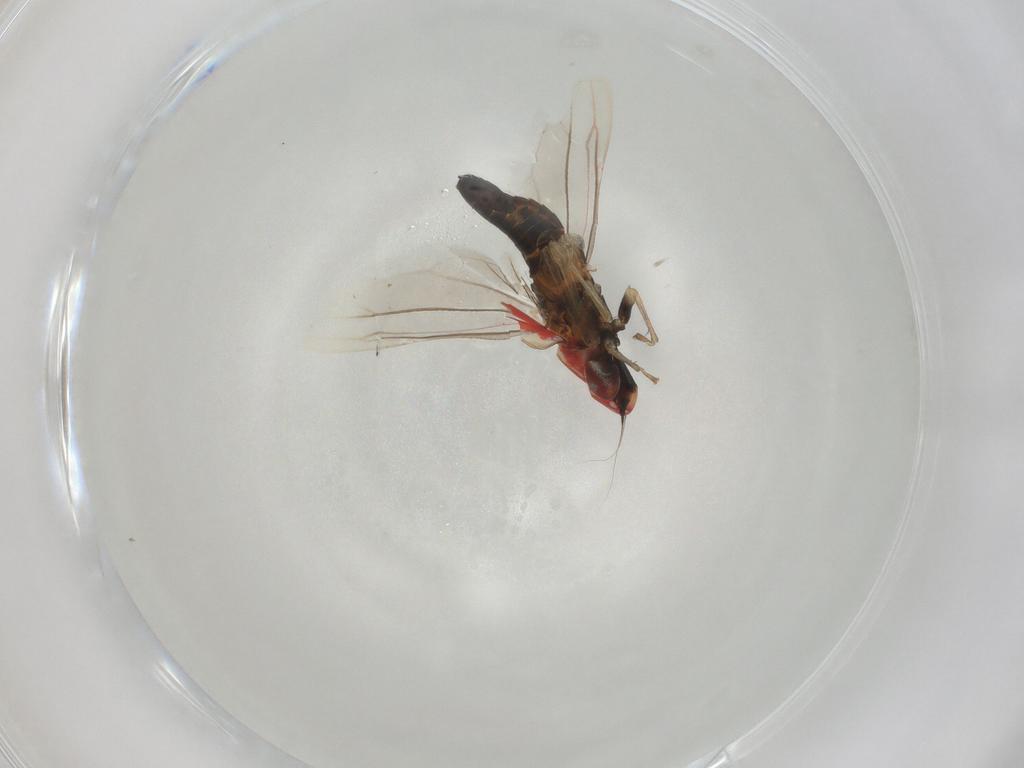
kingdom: Animalia
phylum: Arthropoda
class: Insecta
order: Hemiptera
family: Cicadellidae
